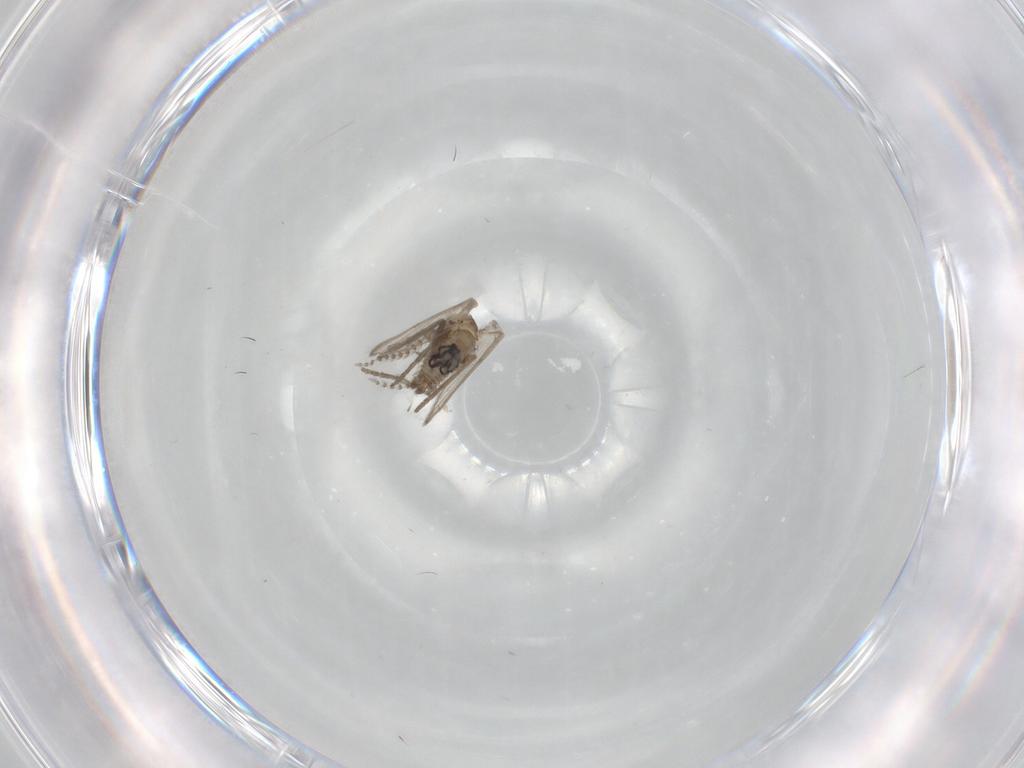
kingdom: Animalia
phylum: Arthropoda
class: Insecta
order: Diptera
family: Psychodidae
